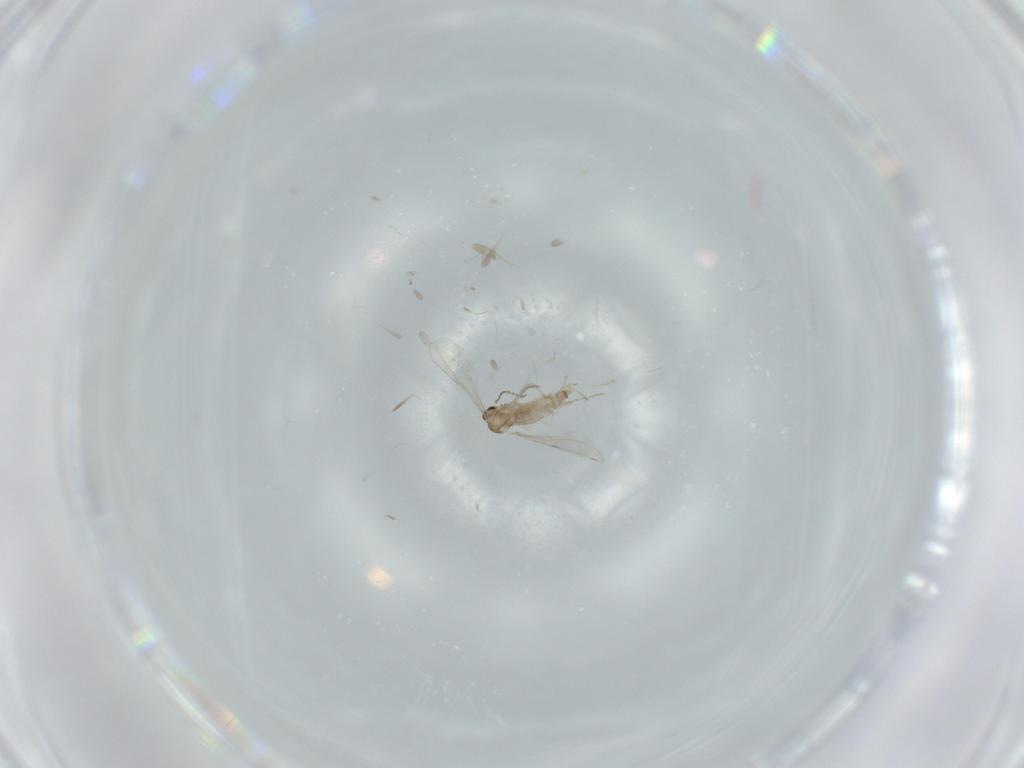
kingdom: Animalia
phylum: Arthropoda
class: Insecta
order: Diptera
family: Cecidomyiidae
